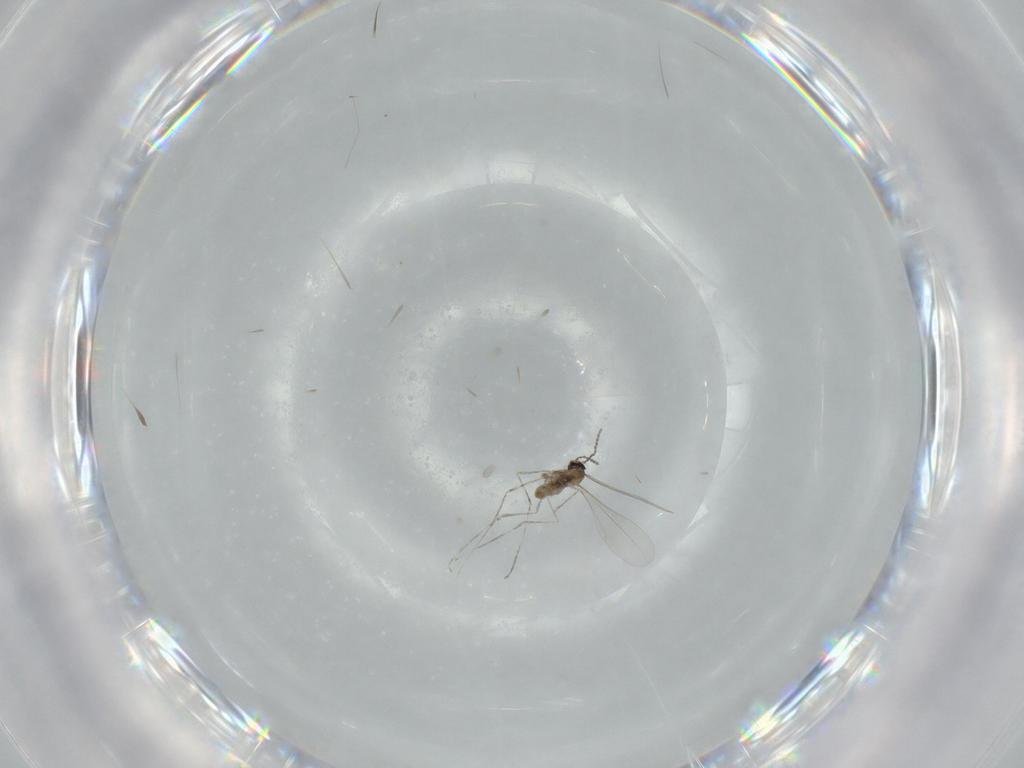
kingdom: Animalia
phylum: Arthropoda
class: Insecta
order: Diptera
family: Cecidomyiidae
